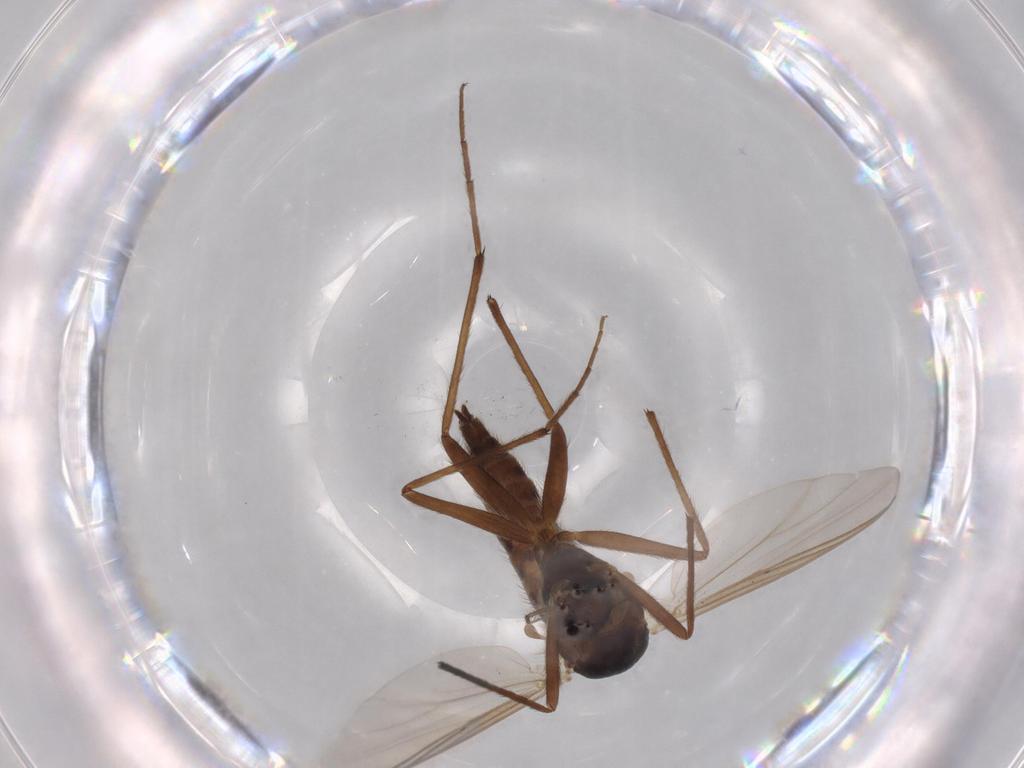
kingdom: Animalia
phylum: Arthropoda
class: Insecta
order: Diptera
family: Chironomidae
